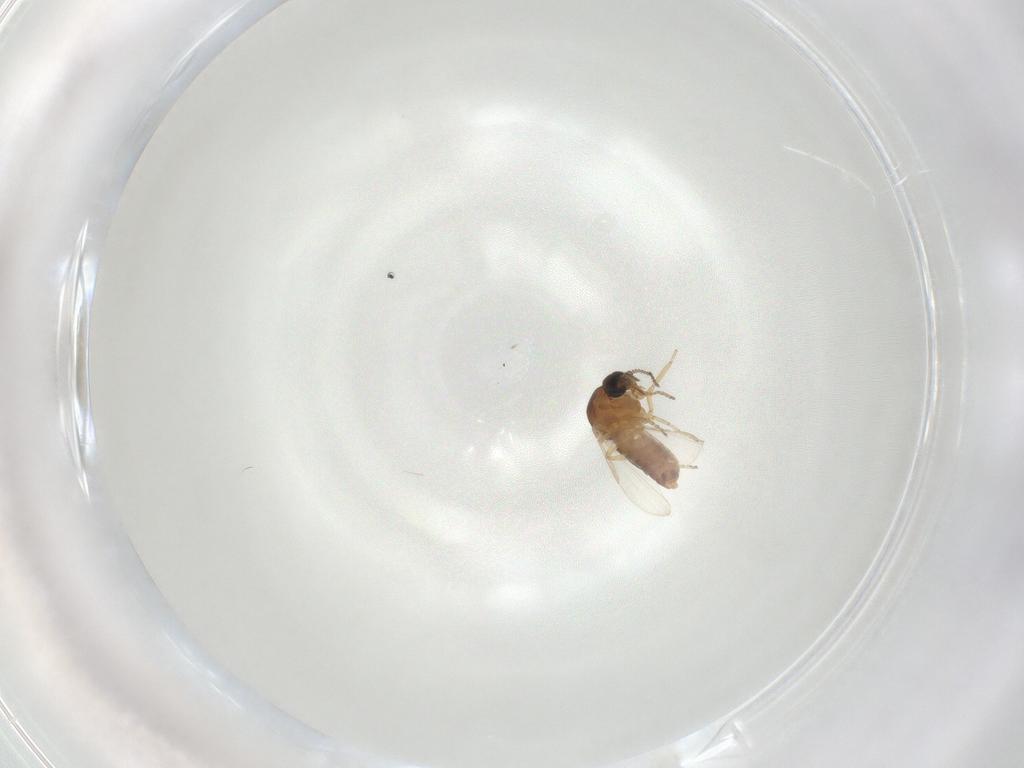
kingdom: Animalia
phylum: Arthropoda
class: Insecta
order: Diptera
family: Ceratopogonidae
